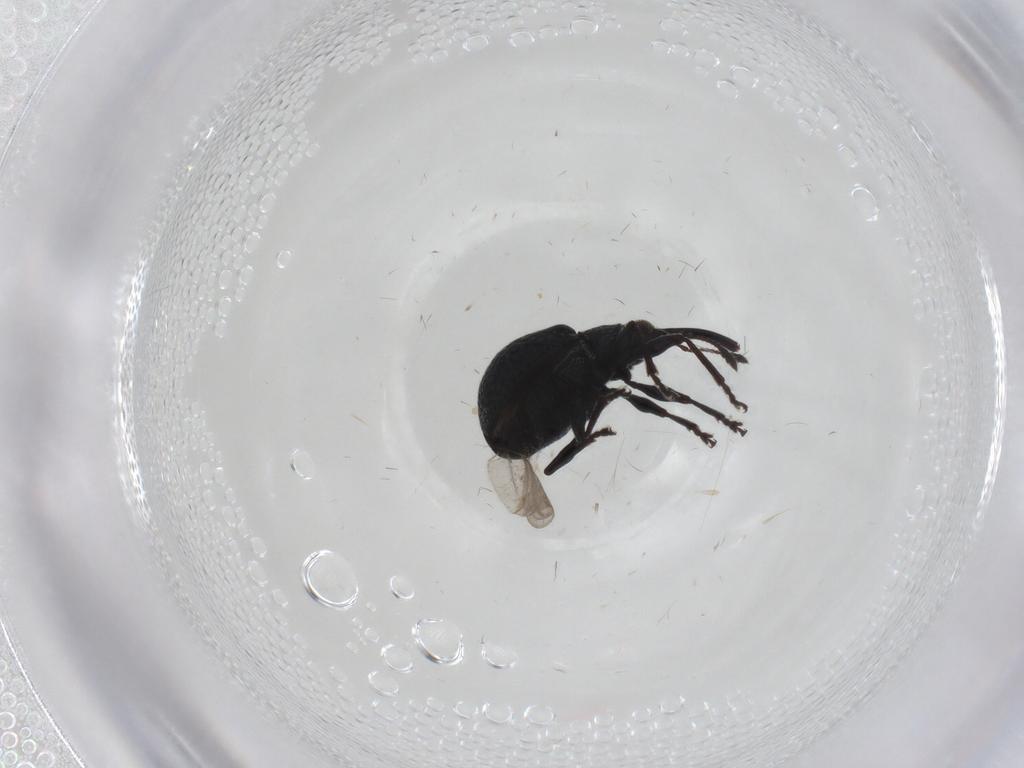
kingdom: Animalia
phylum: Arthropoda
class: Insecta
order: Coleoptera
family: Brentidae
